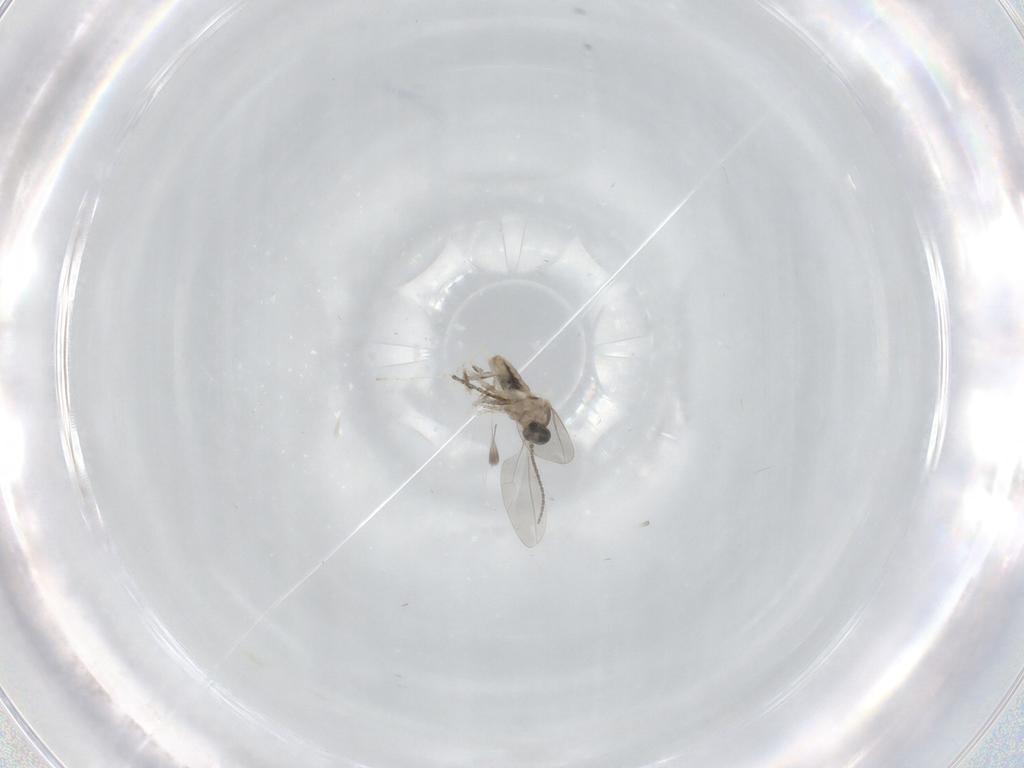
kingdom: Animalia
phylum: Arthropoda
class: Insecta
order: Diptera
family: Cecidomyiidae
